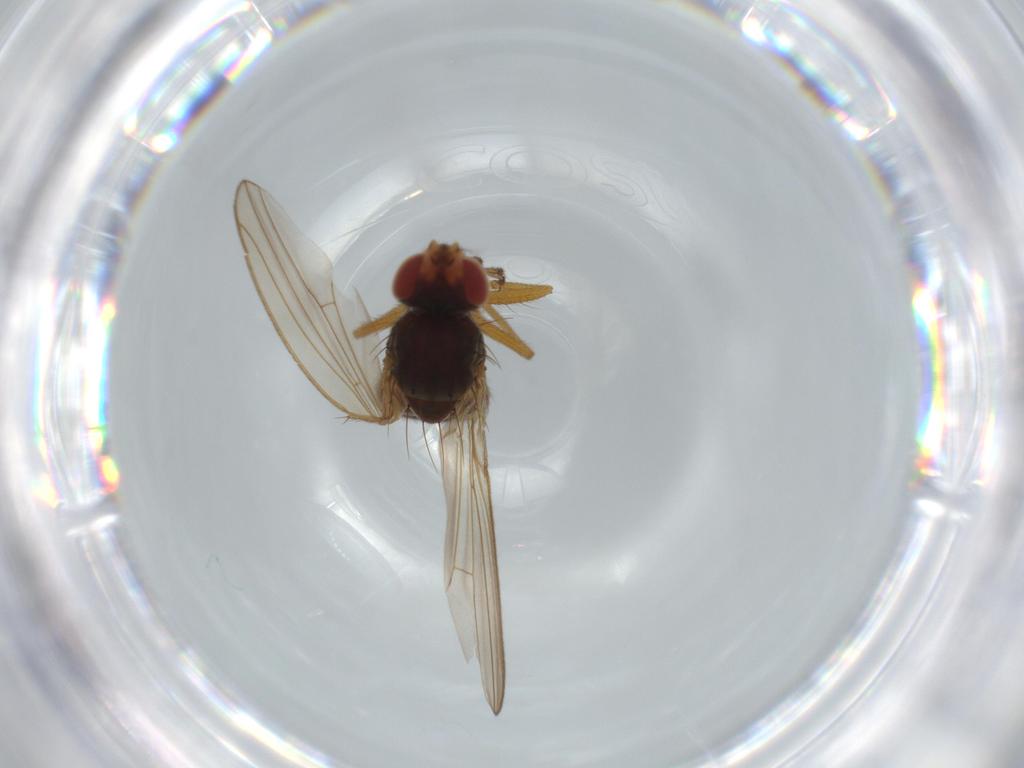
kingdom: Animalia
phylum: Arthropoda
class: Insecta
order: Diptera
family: Drosophilidae
